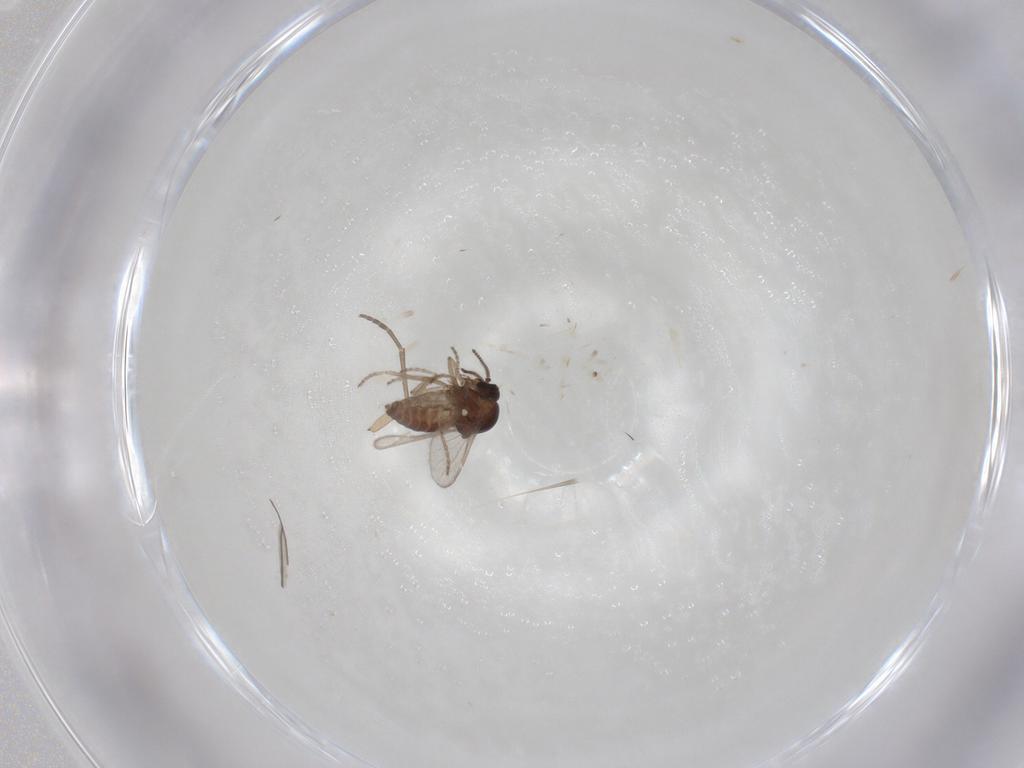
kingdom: Animalia
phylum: Arthropoda
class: Insecta
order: Diptera
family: Ceratopogonidae
